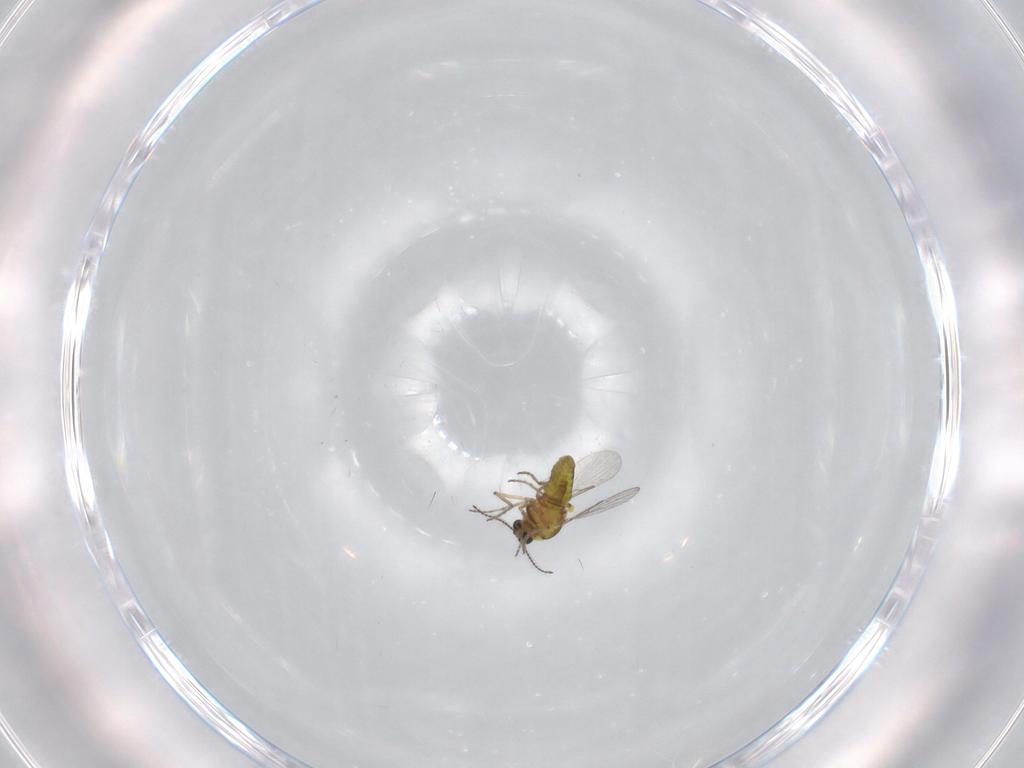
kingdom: Animalia
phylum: Arthropoda
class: Insecta
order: Diptera
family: Ceratopogonidae
